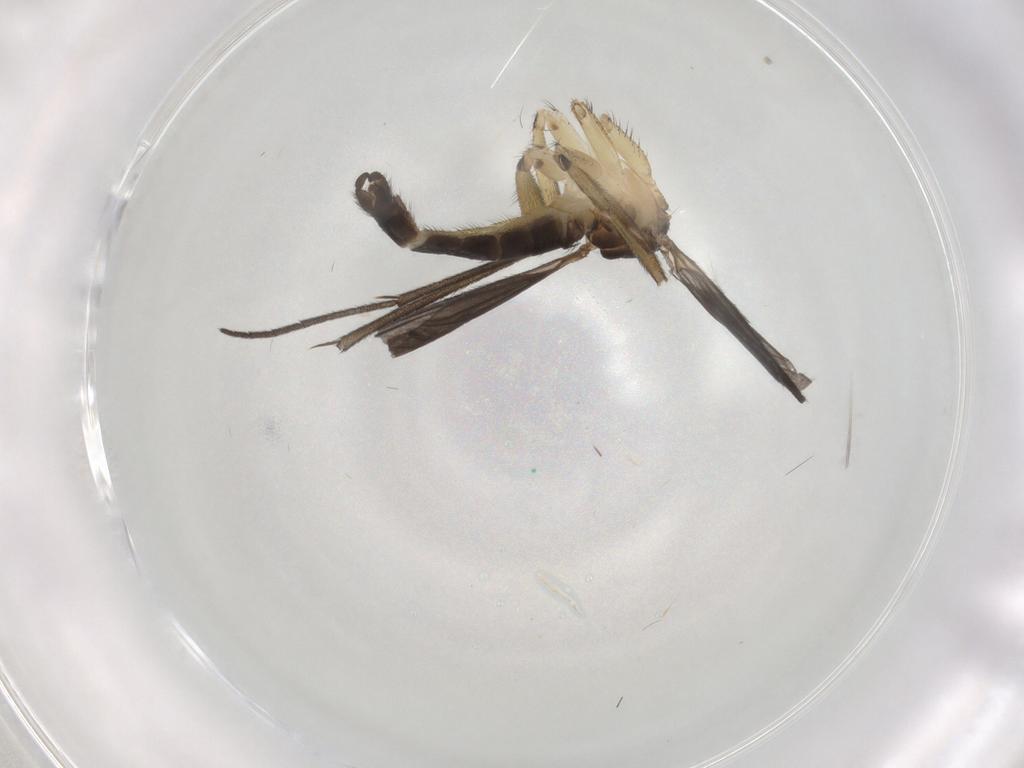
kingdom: Animalia
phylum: Arthropoda
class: Insecta
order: Diptera
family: Sciaridae
